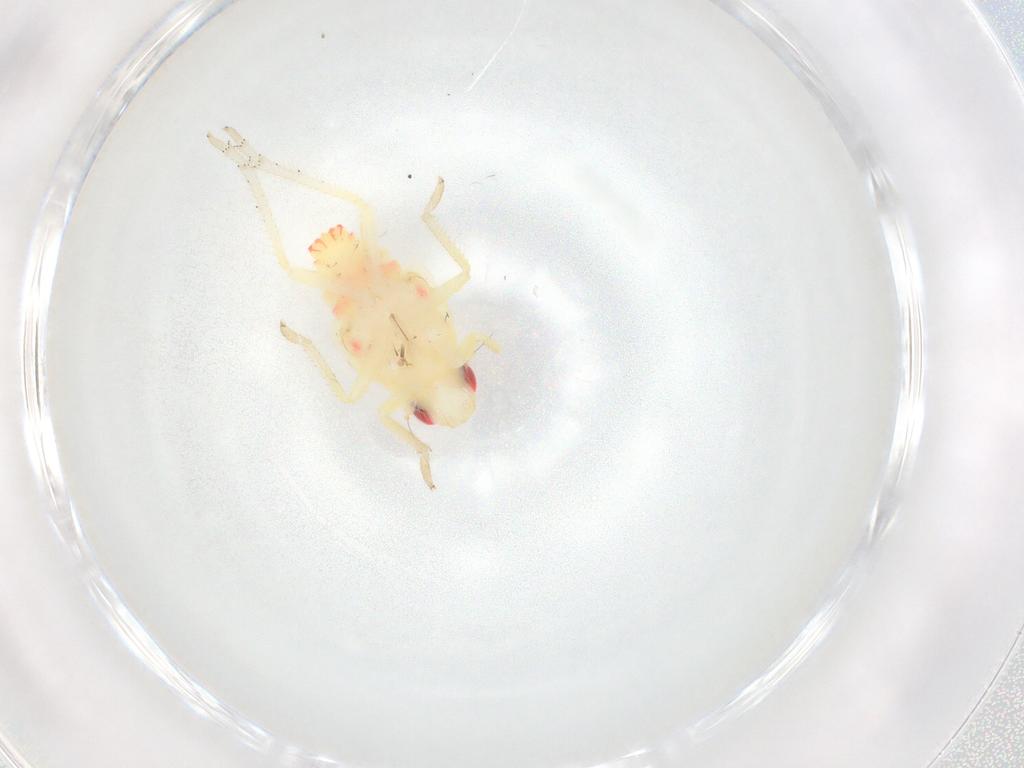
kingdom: Animalia
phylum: Arthropoda
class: Insecta
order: Hemiptera
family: Tropiduchidae
